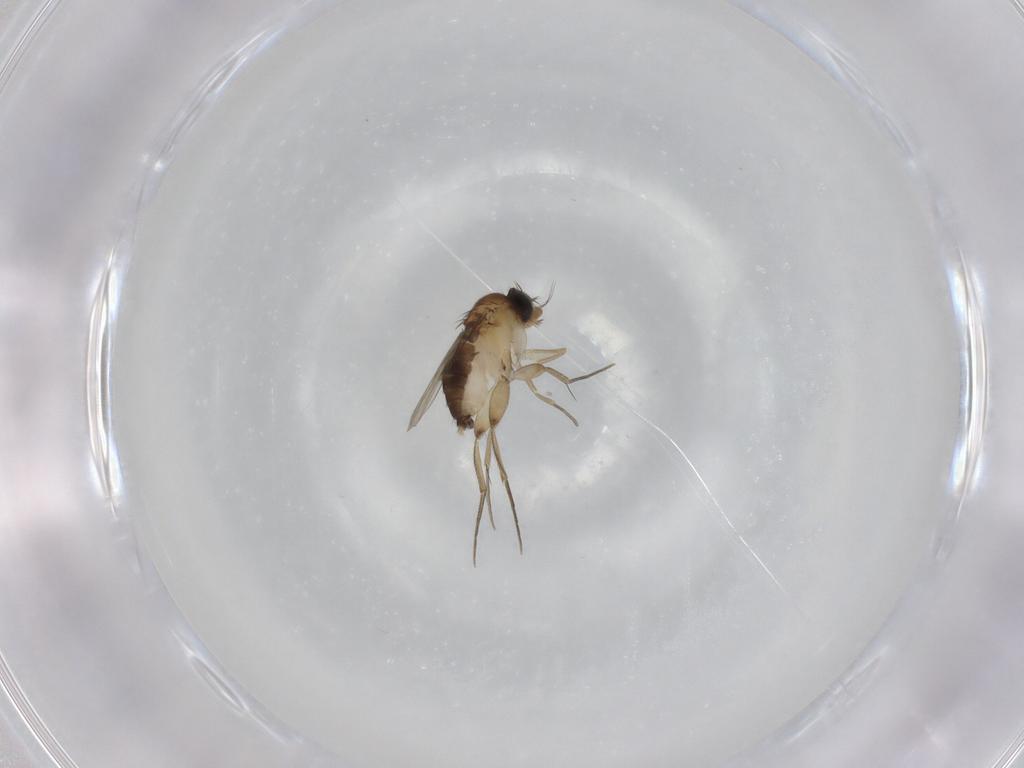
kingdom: Animalia
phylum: Arthropoda
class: Insecta
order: Diptera
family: Phoridae
